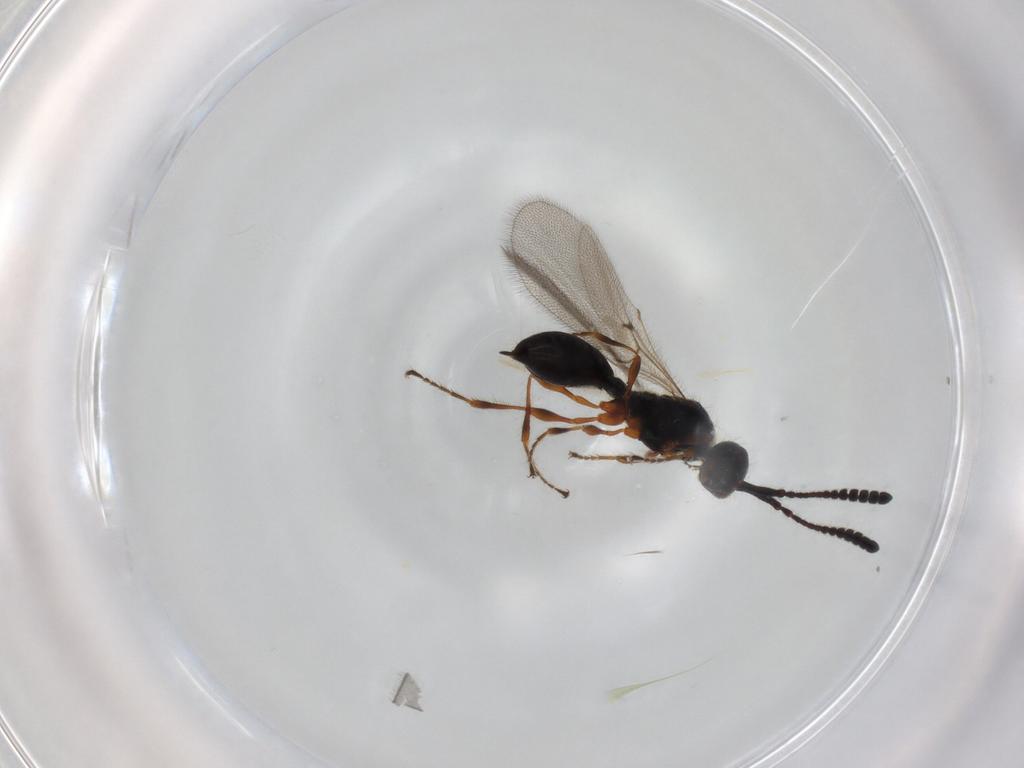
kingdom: Animalia
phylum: Arthropoda
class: Insecta
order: Hymenoptera
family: Diapriidae
